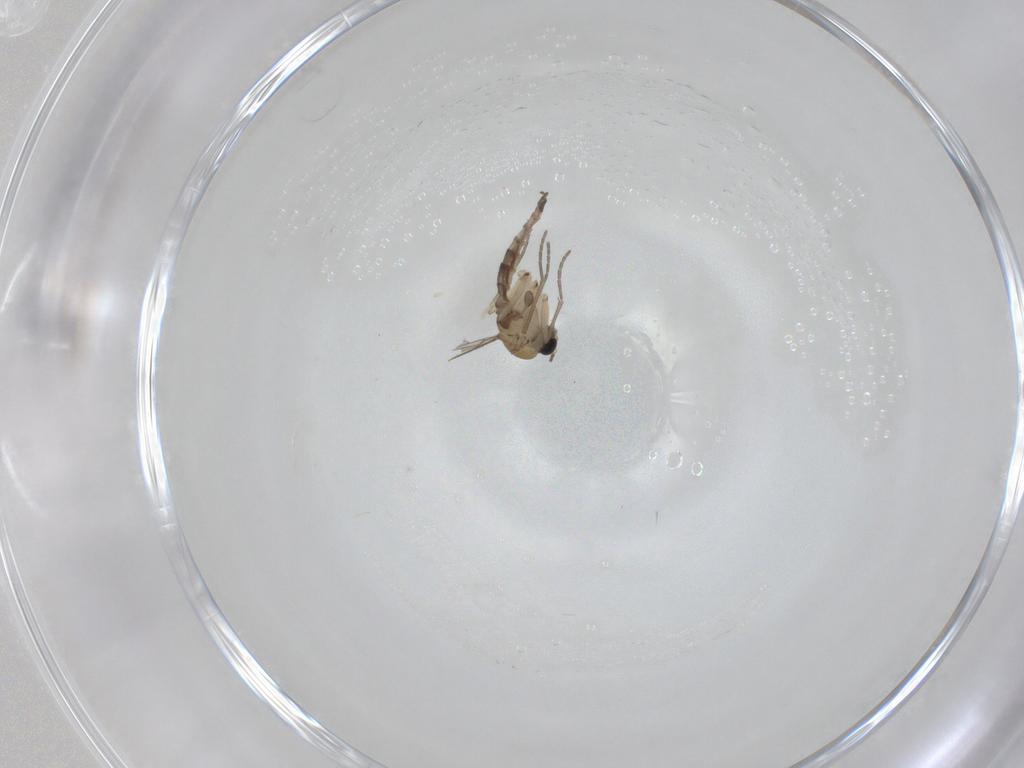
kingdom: Animalia
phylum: Arthropoda
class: Insecta
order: Diptera
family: Sciaridae
